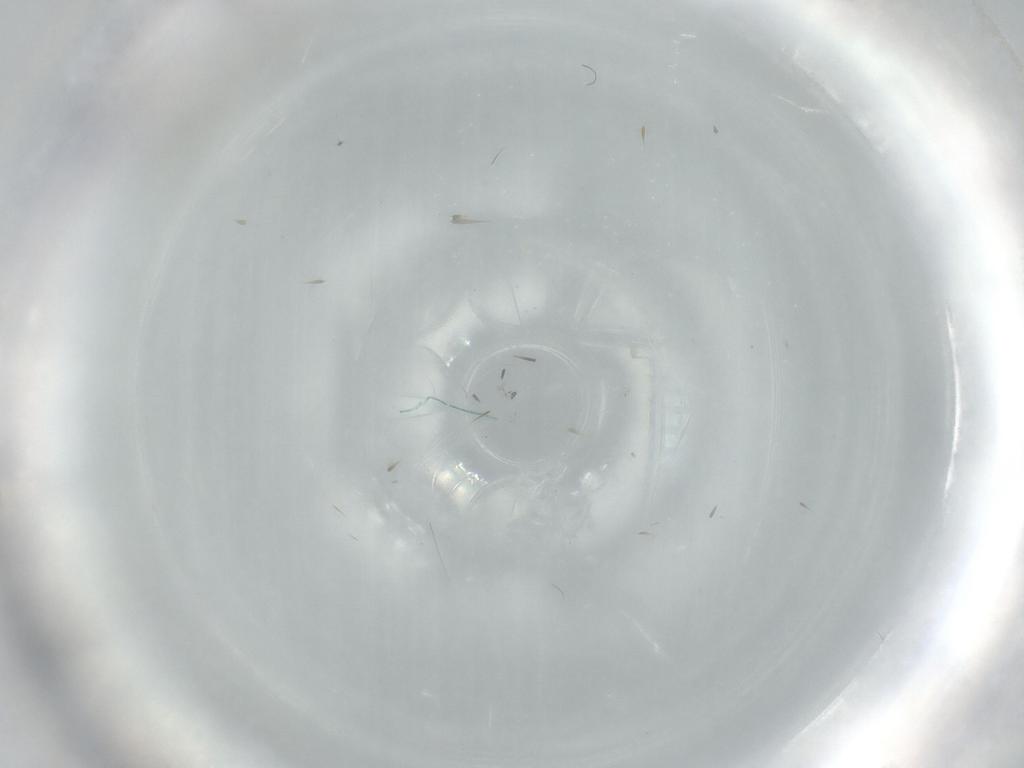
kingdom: Animalia
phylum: Arthropoda
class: Insecta
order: Diptera
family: Cecidomyiidae
